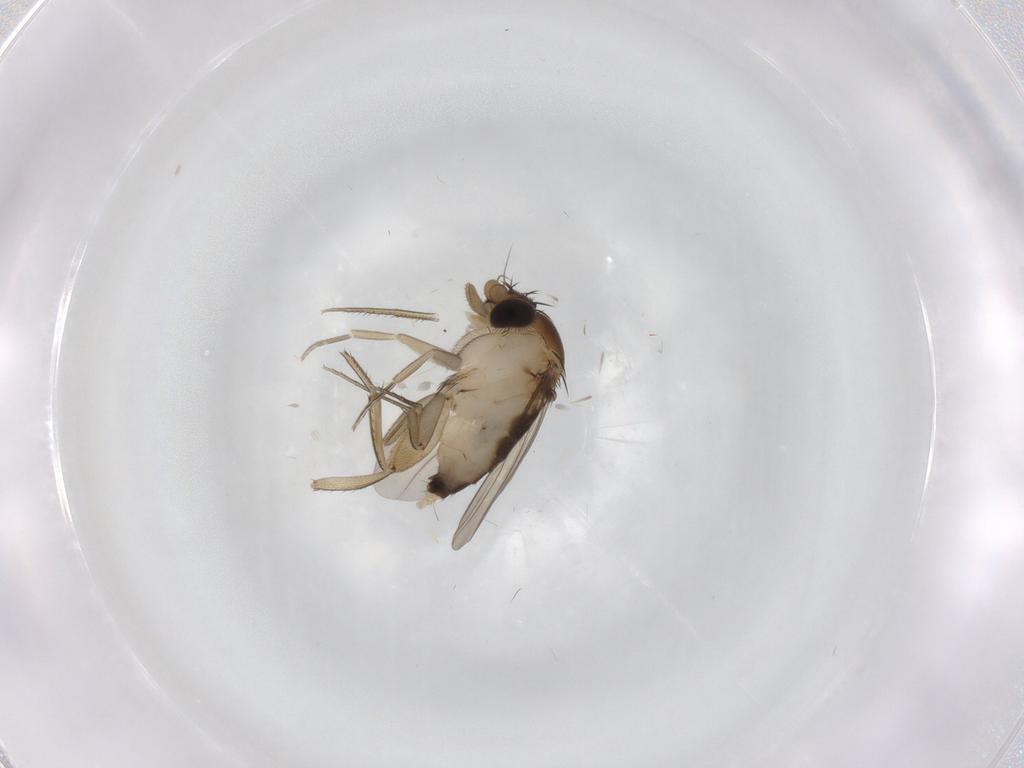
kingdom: Animalia
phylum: Arthropoda
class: Insecta
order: Diptera
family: Phoridae
